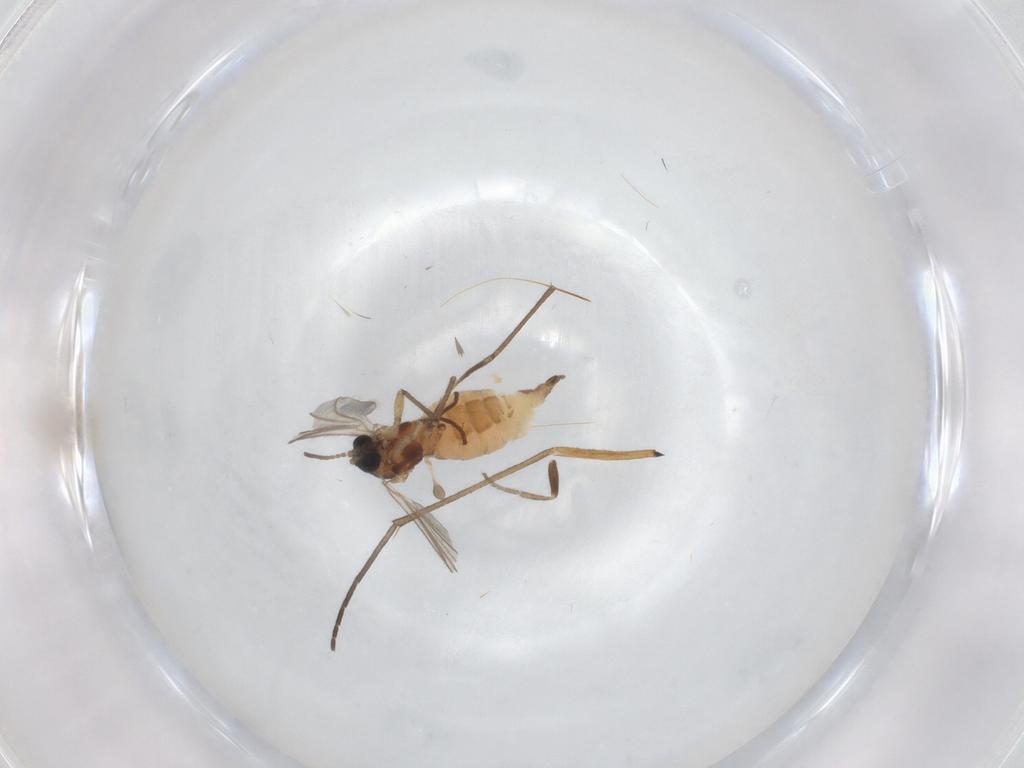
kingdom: Animalia
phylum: Arthropoda
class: Insecta
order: Diptera
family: Sciaridae
